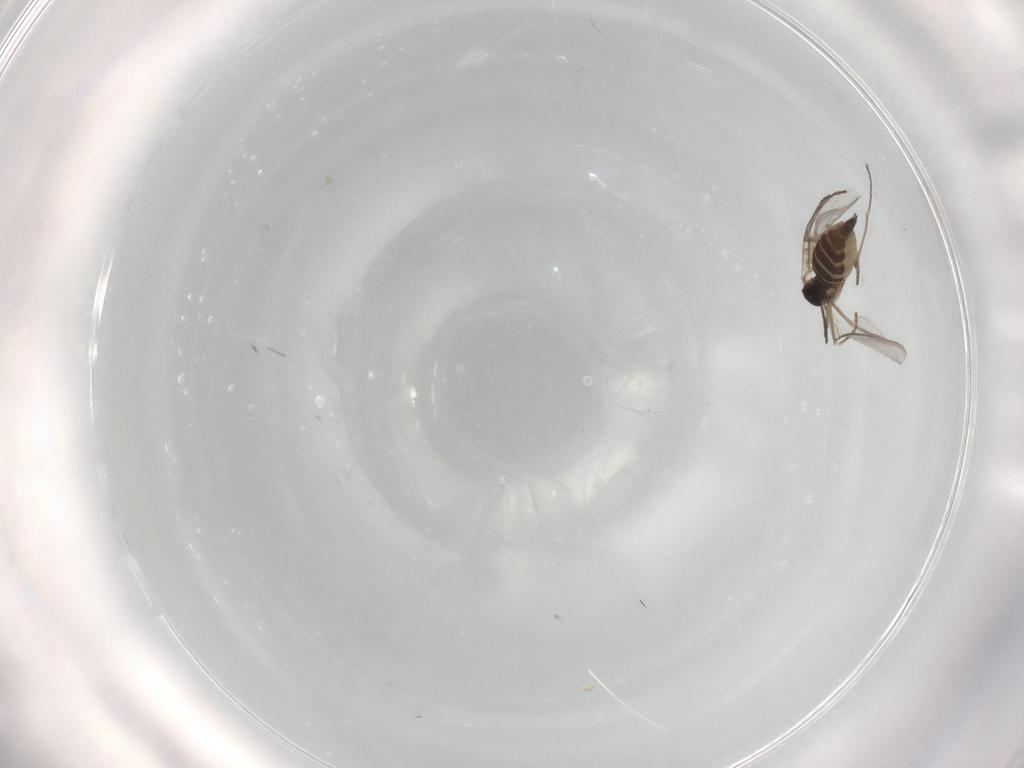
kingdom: Animalia
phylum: Arthropoda
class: Insecta
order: Diptera
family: Sciaridae
